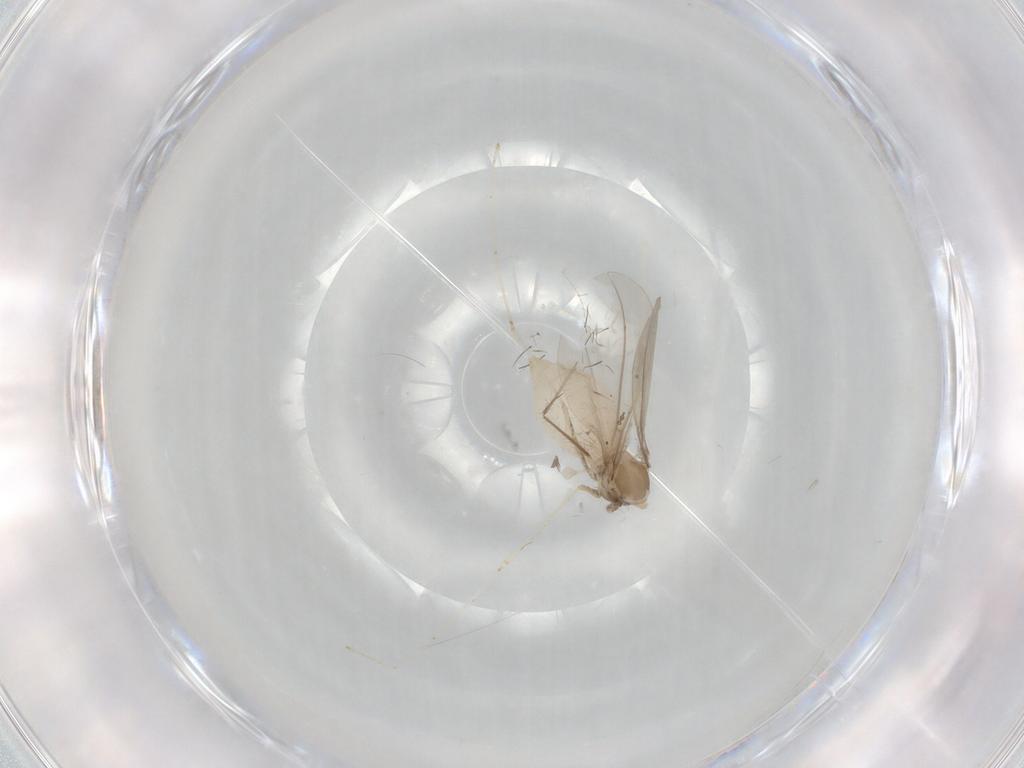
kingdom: Animalia
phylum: Arthropoda
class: Insecta
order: Diptera
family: Cecidomyiidae
